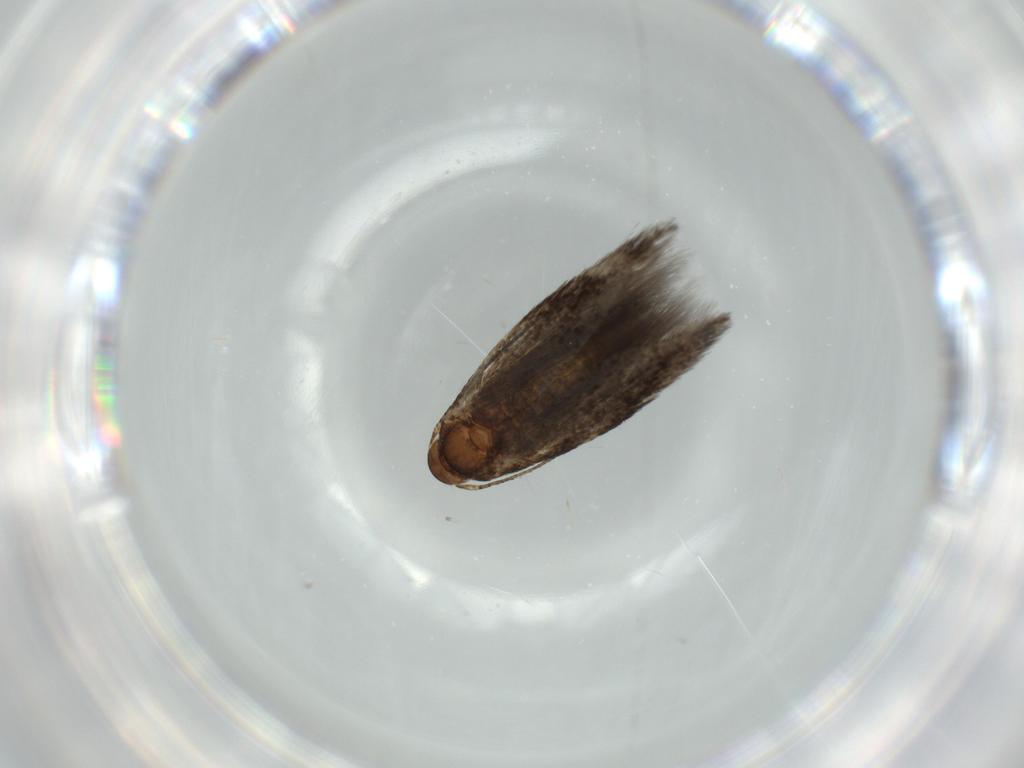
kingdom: Animalia
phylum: Arthropoda
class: Insecta
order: Lepidoptera
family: Gelechiidae
